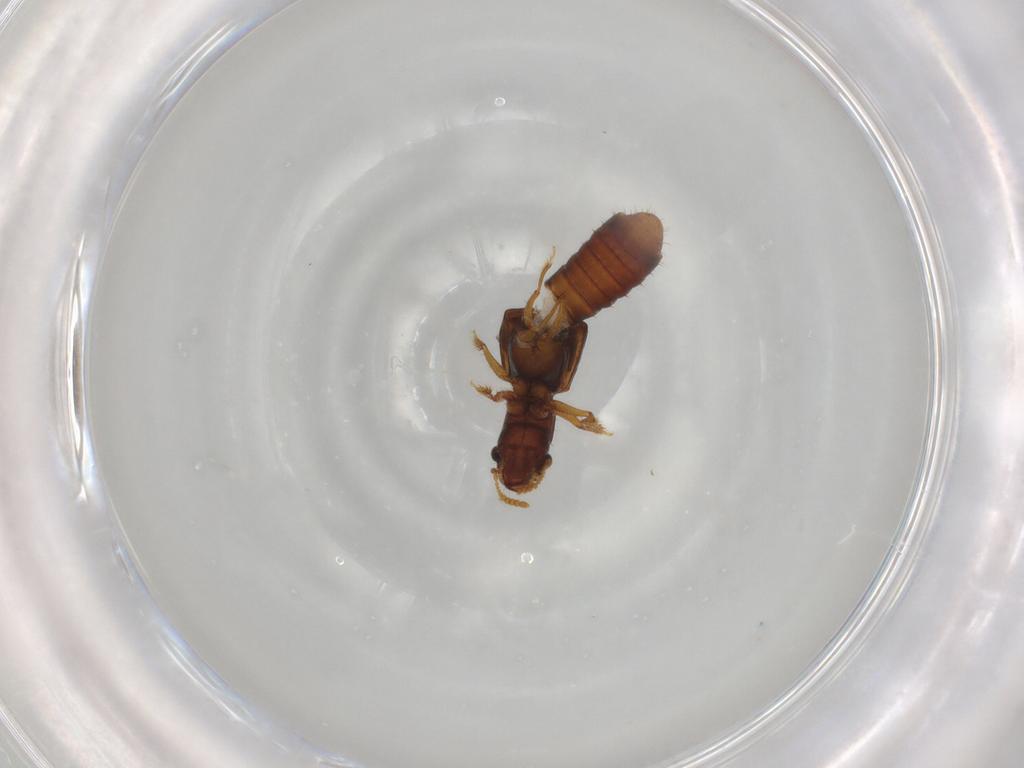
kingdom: Animalia
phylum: Arthropoda
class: Insecta
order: Coleoptera
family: Staphylinidae
